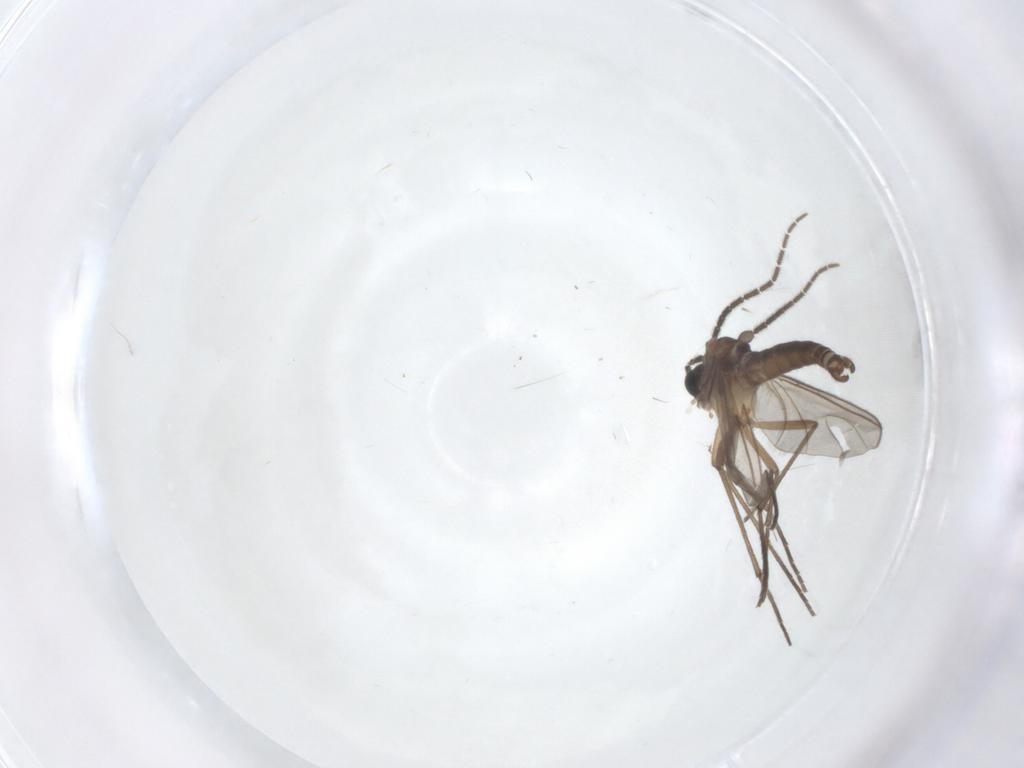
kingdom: Animalia
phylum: Arthropoda
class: Insecta
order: Diptera
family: Sciaridae
